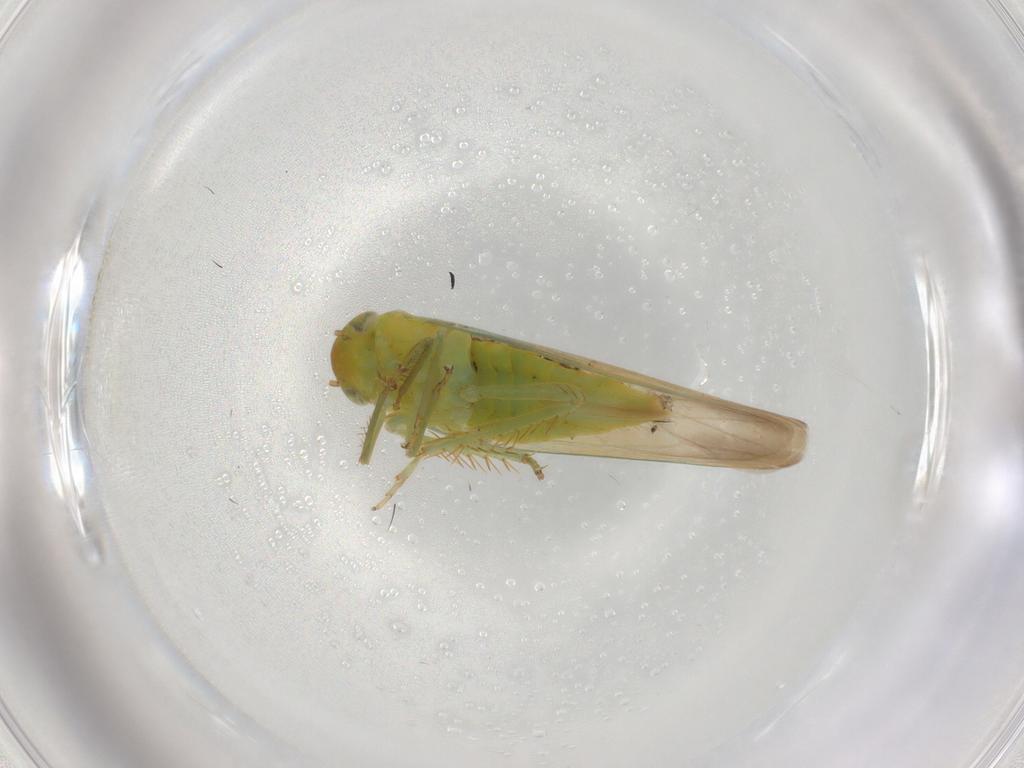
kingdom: Animalia
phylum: Arthropoda
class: Insecta
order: Hemiptera
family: Cicadellidae
